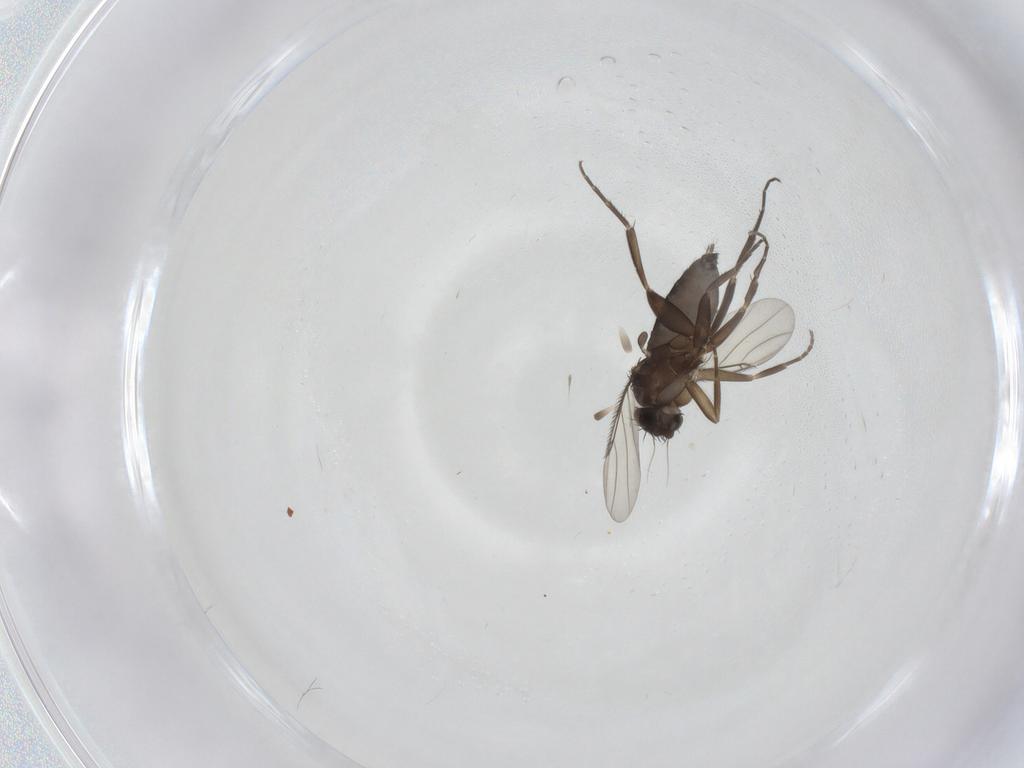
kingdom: Animalia
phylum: Arthropoda
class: Insecta
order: Diptera
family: Phoridae
